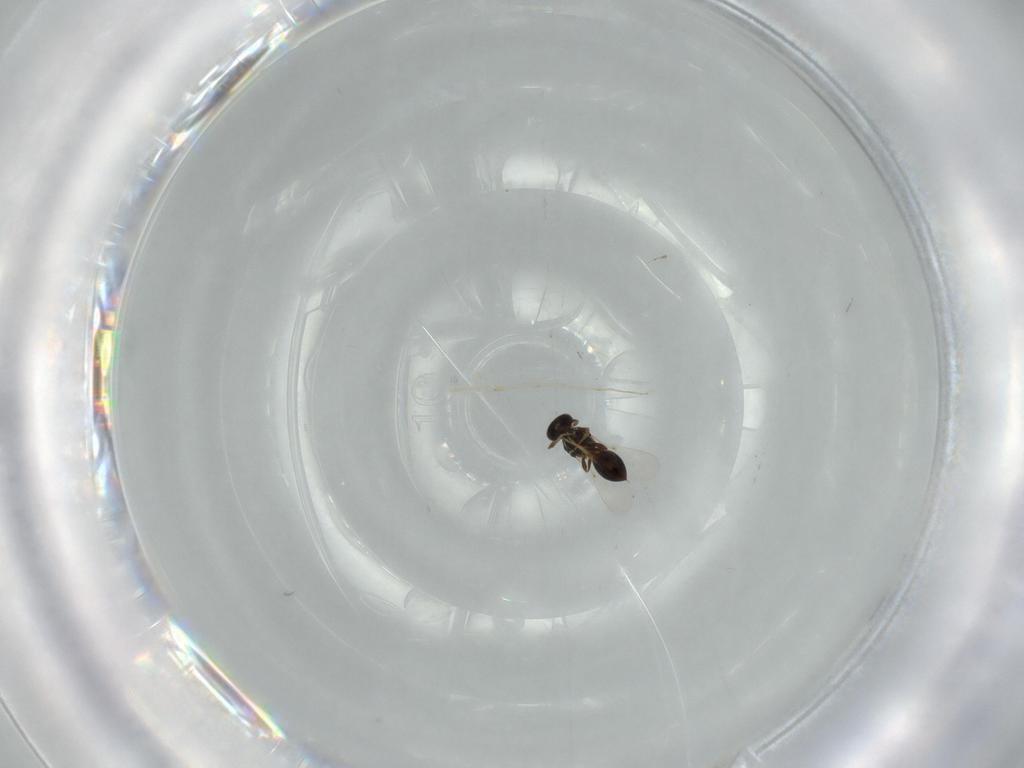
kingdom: Animalia
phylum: Arthropoda
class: Insecta
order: Hymenoptera
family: Platygastridae
